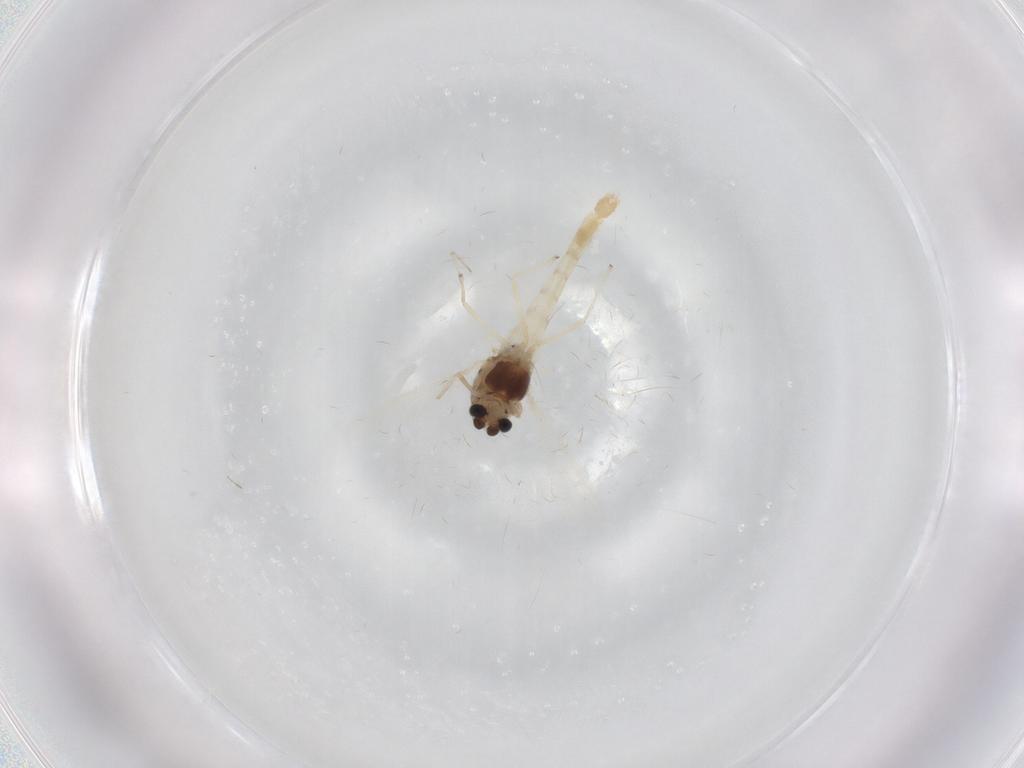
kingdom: Animalia
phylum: Arthropoda
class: Insecta
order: Diptera
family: Chironomidae
